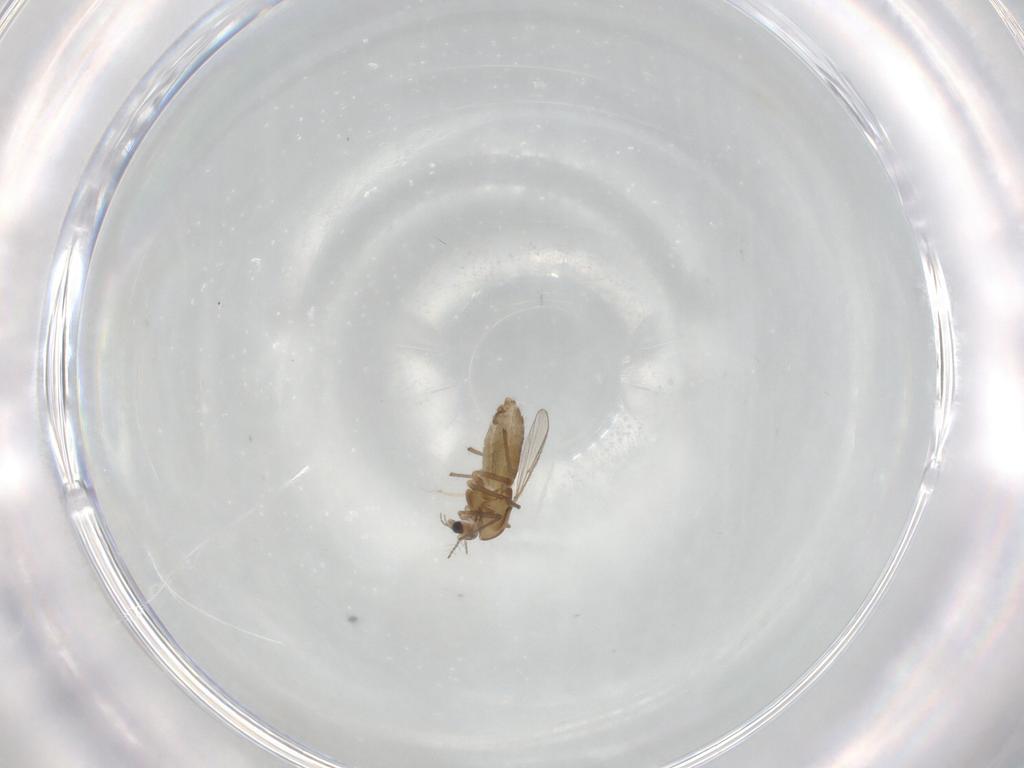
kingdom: Animalia
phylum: Arthropoda
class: Insecta
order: Diptera
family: Chironomidae
